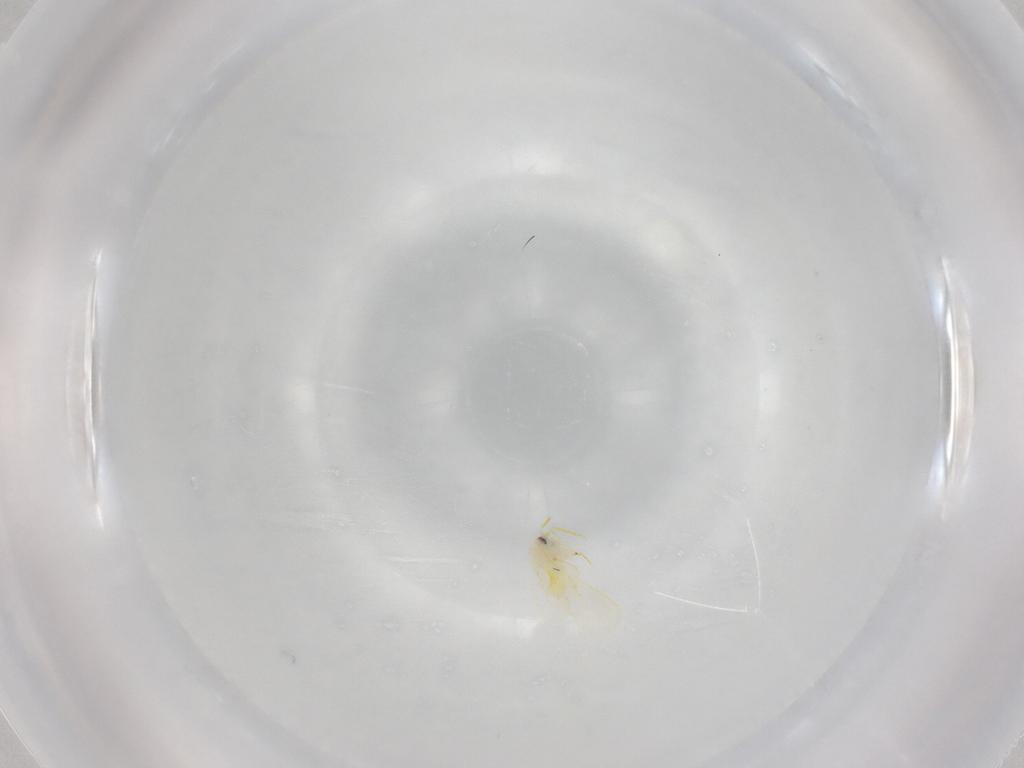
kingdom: Animalia
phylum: Arthropoda
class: Insecta
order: Hemiptera
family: Aleyrodidae
